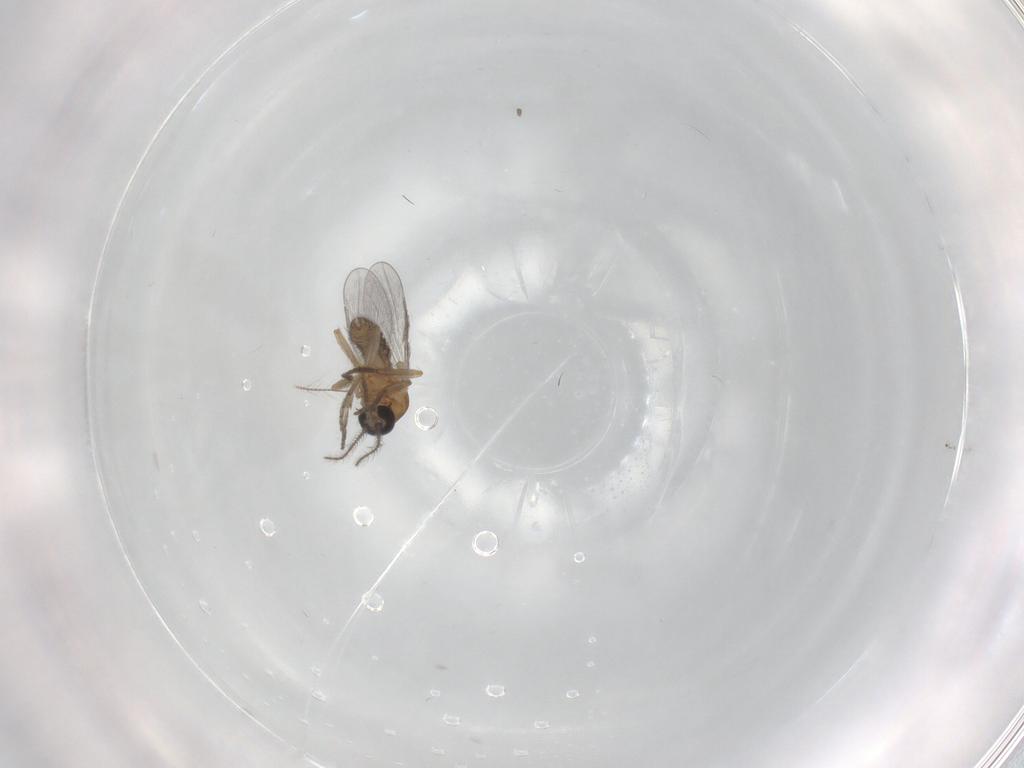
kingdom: Animalia
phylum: Arthropoda
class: Insecta
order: Diptera
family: Ceratopogonidae
